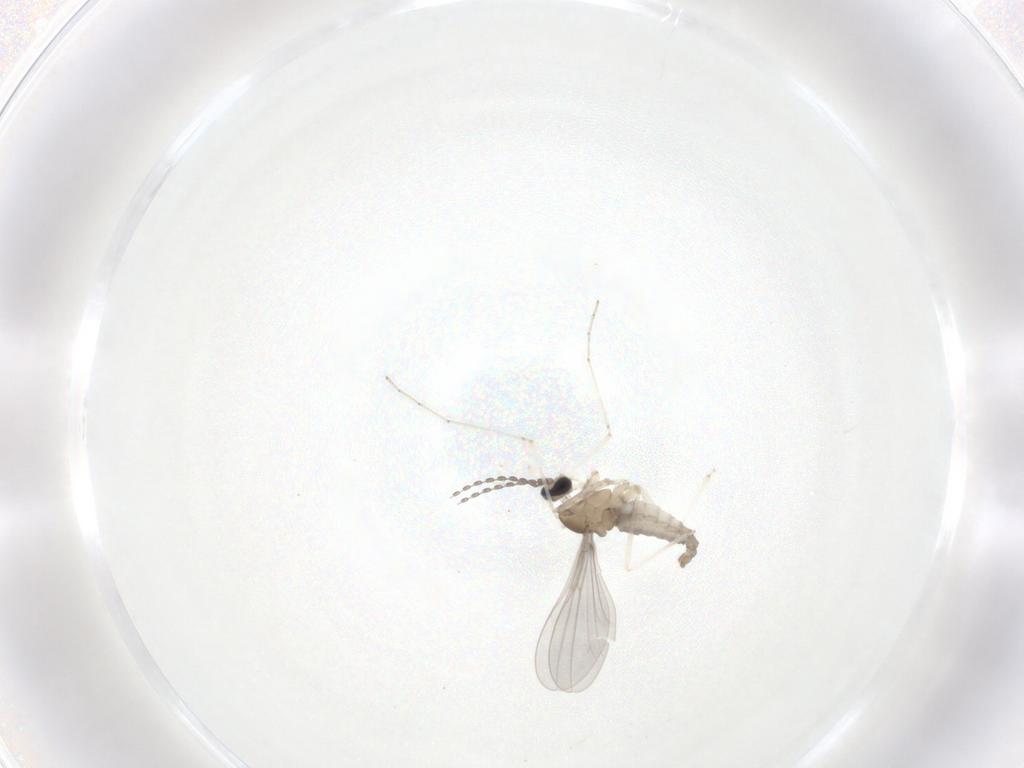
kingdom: Animalia
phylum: Arthropoda
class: Insecta
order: Diptera
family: Cecidomyiidae
